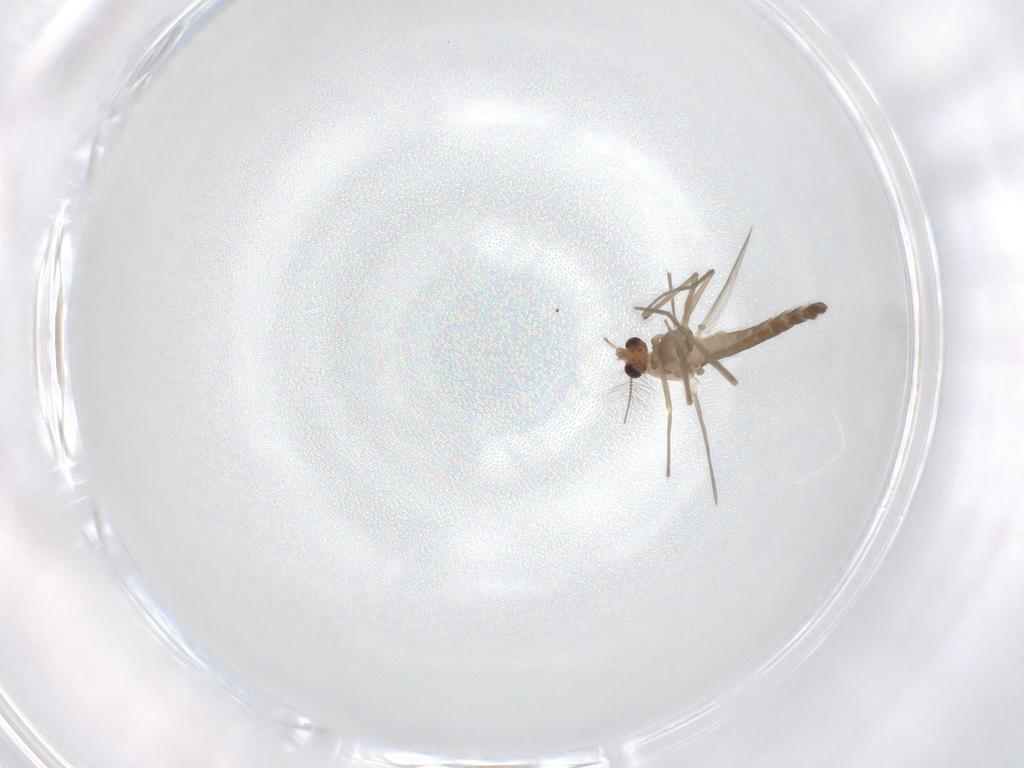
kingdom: Animalia
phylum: Arthropoda
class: Insecta
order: Diptera
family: Chironomidae
